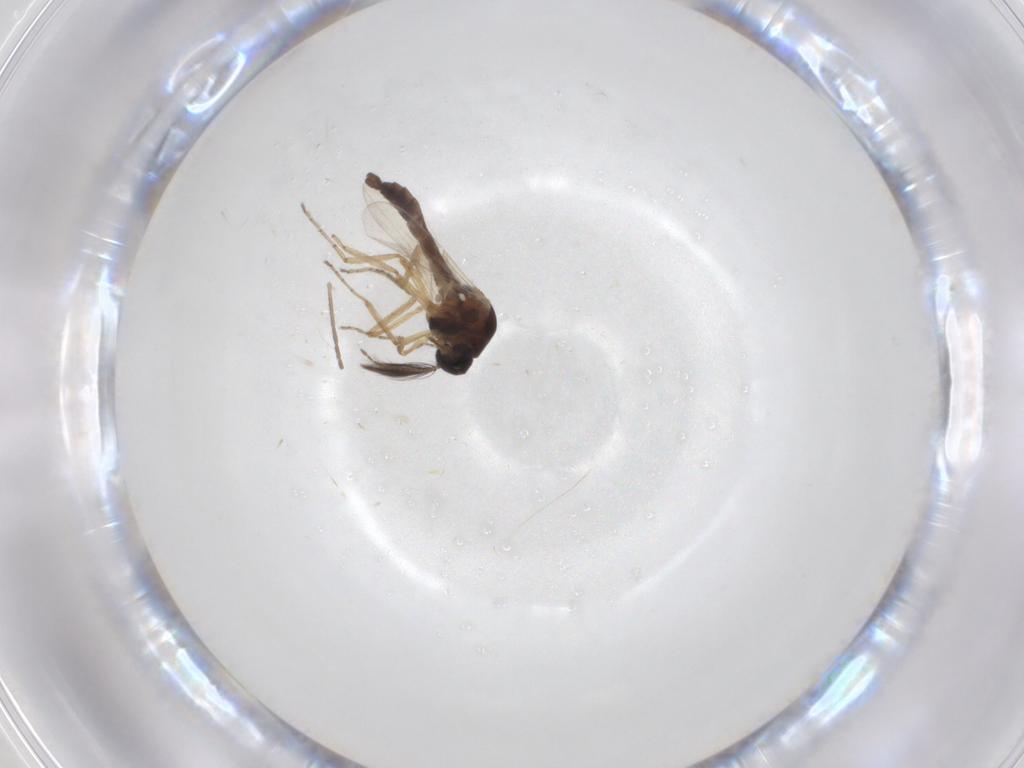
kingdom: Animalia
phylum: Arthropoda
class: Insecta
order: Diptera
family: Ceratopogonidae
